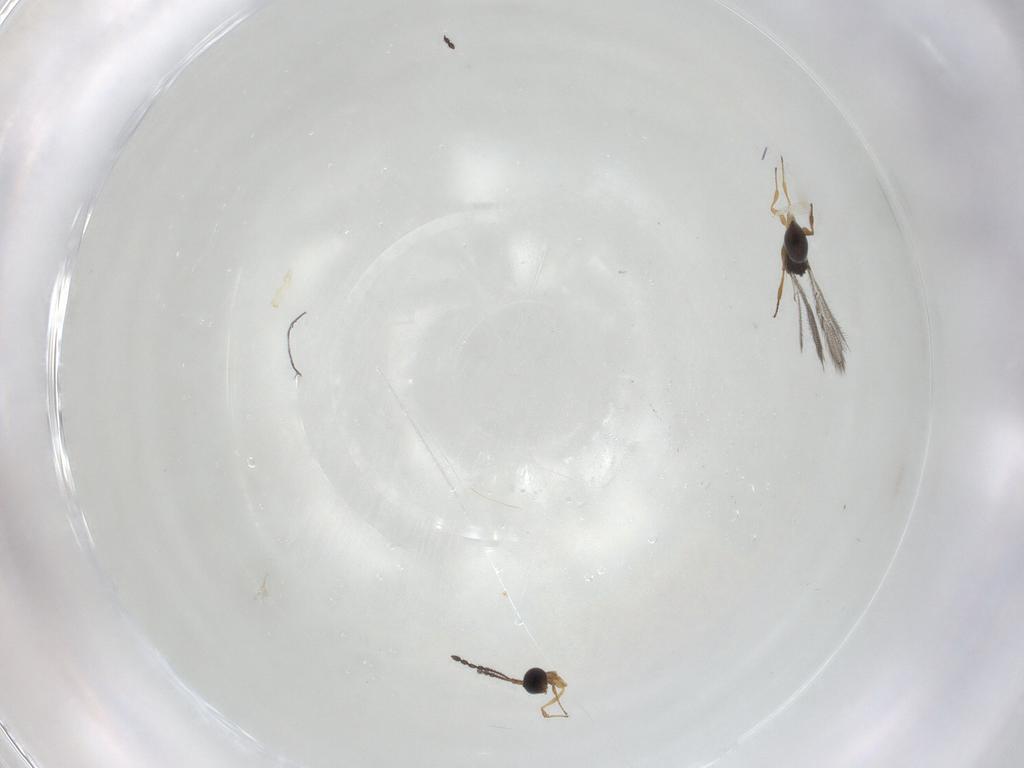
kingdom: Animalia
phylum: Arthropoda
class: Insecta
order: Hymenoptera
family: Figitidae
